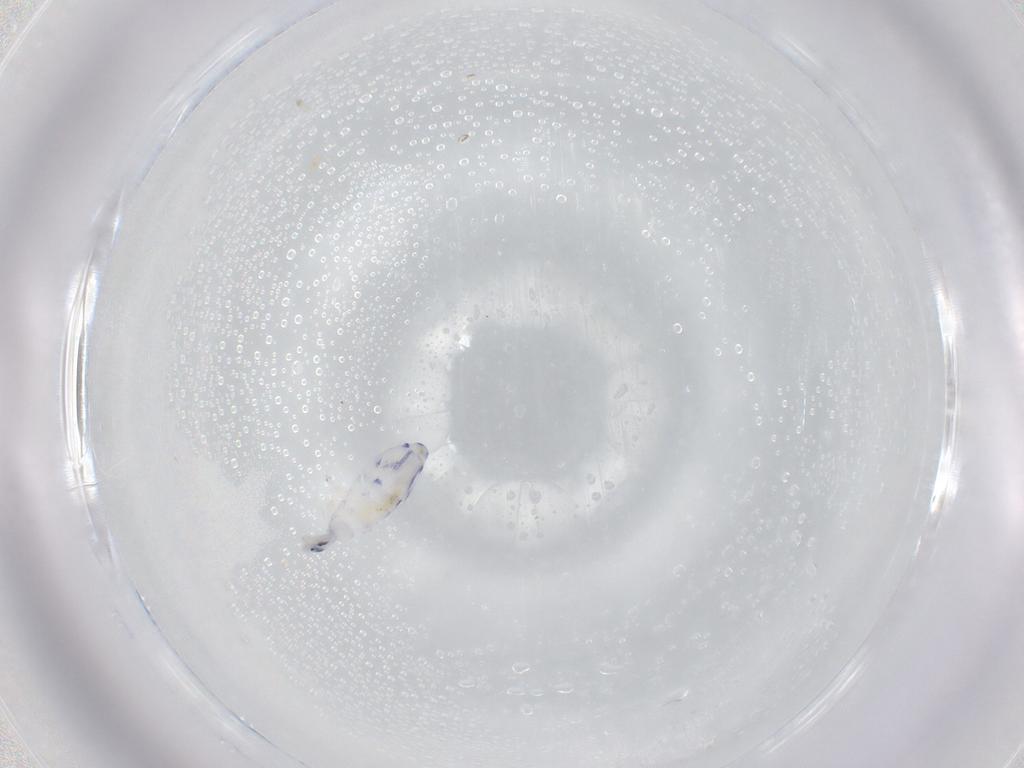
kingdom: Animalia
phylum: Arthropoda
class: Collembola
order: Entomobryomorpha
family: Entomobryidae
